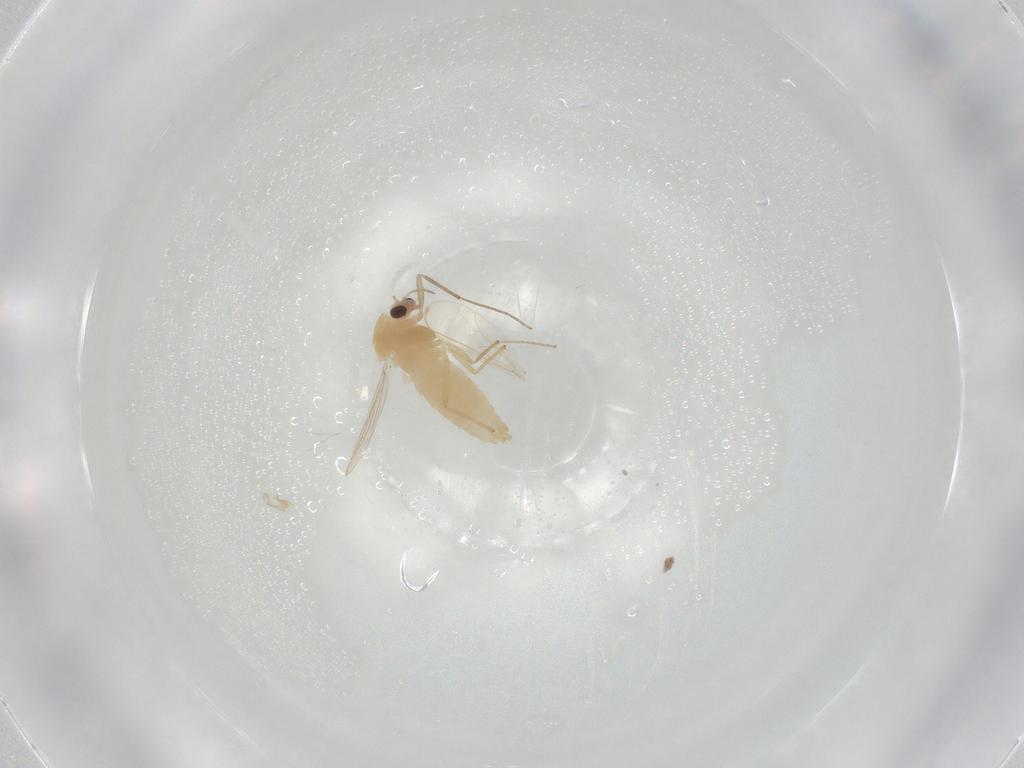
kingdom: Animalia
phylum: Arthropoda
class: Insecta
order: Diptera
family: Chironomidae
